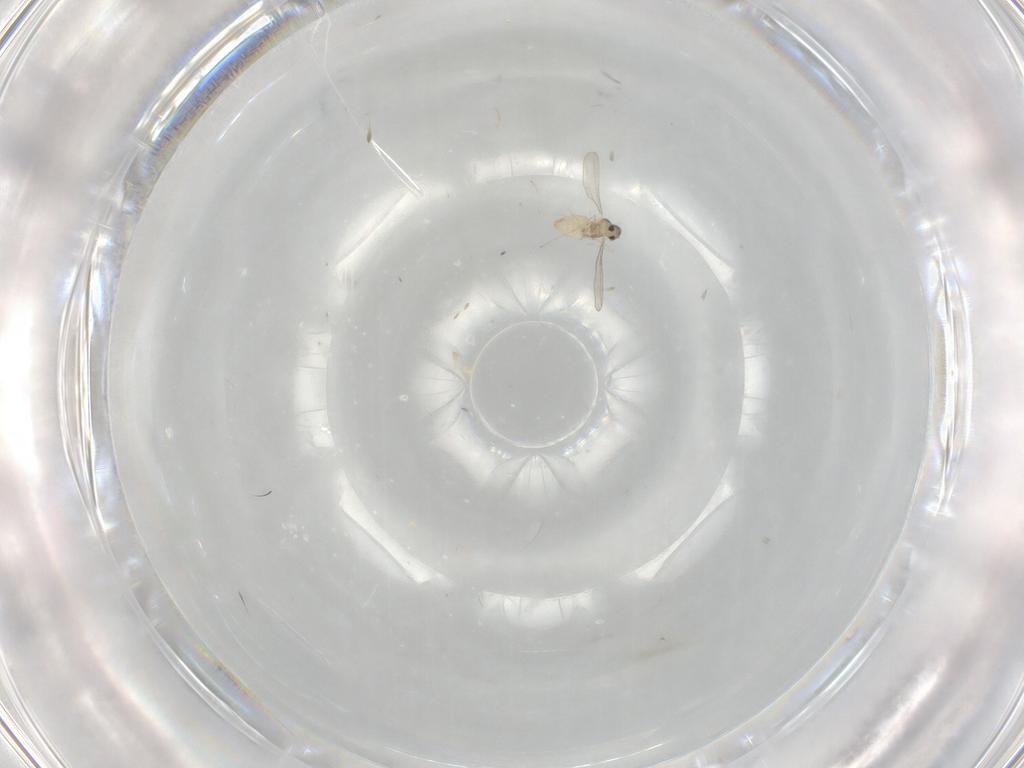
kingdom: Animalia
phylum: Arthropoda
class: Insecta
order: Diptera
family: Cecidomyiidae
